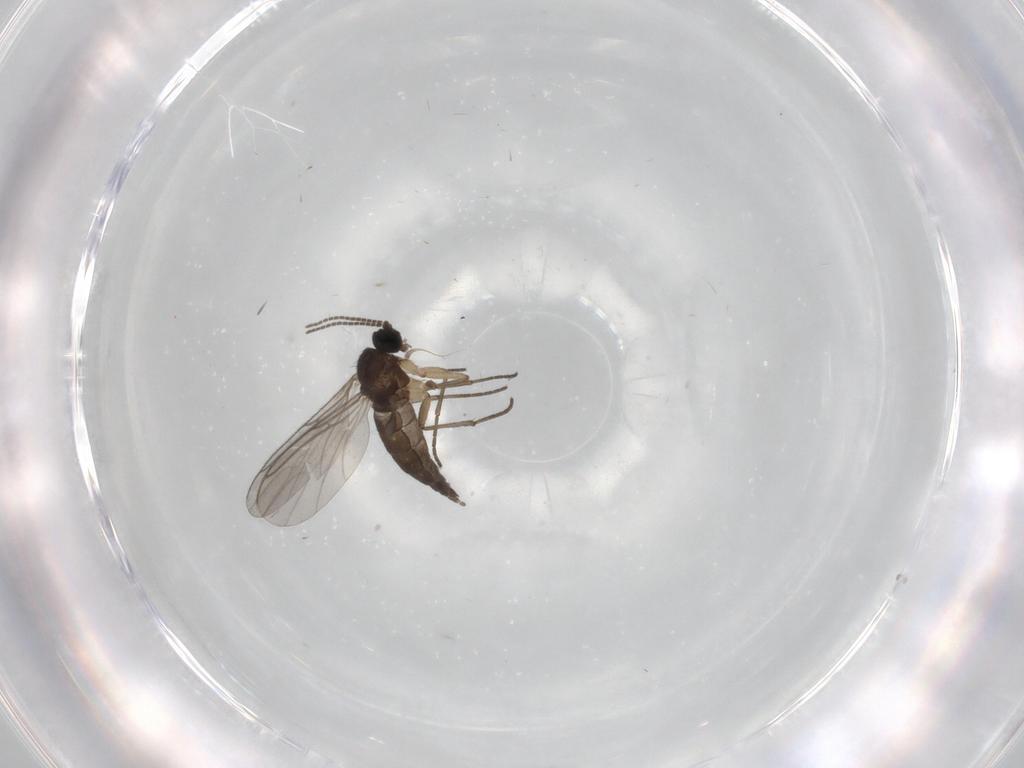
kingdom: Animalia
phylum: Arthropoda
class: Insecta
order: Diptera
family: Sciaridae
